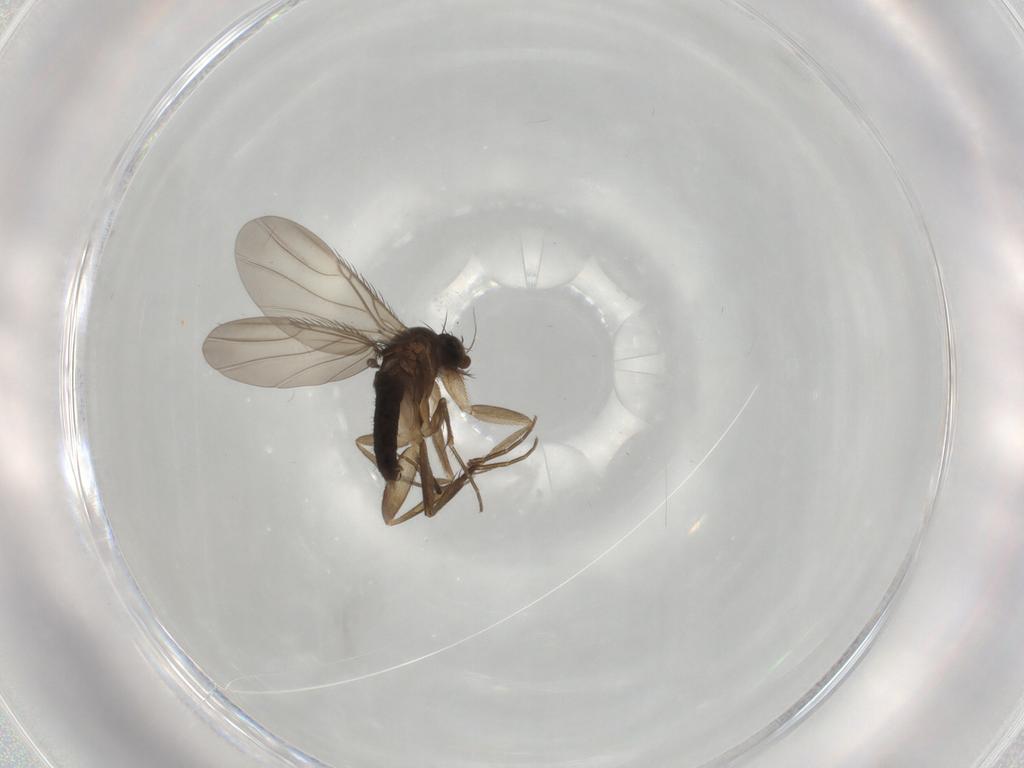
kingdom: Animalia
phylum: Arthropoda
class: Insecta
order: Diptera
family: Phoridae
